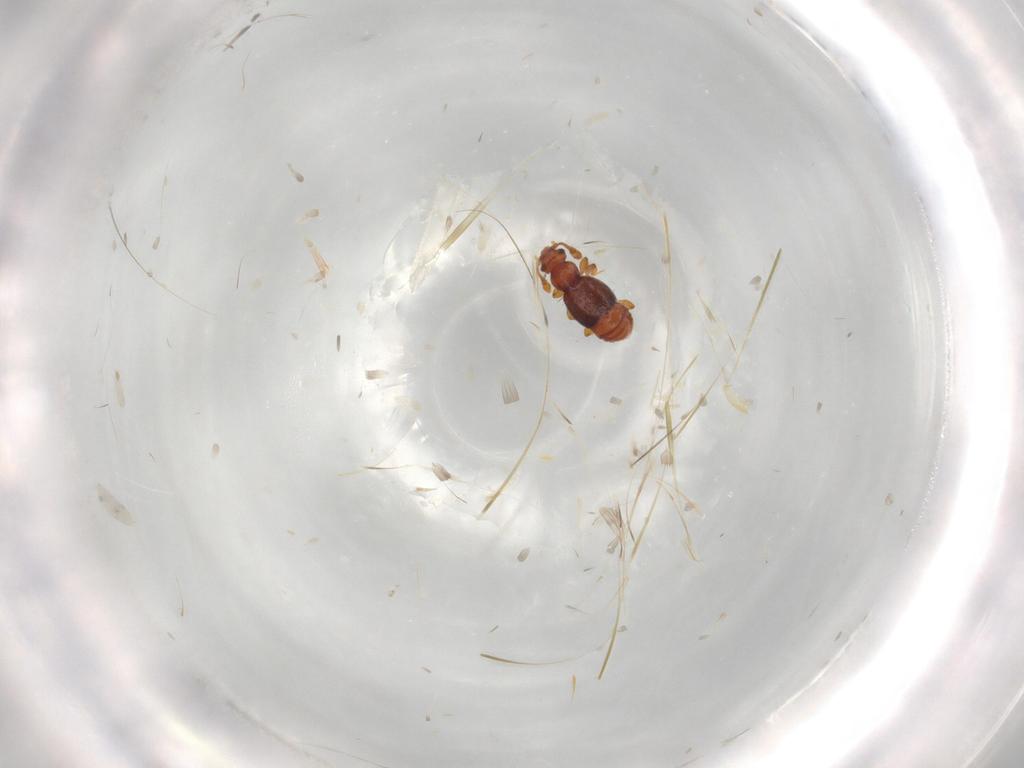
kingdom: Animalia
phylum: Arthropoda
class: Insecta
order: Coleoptera
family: Staphylinidae
